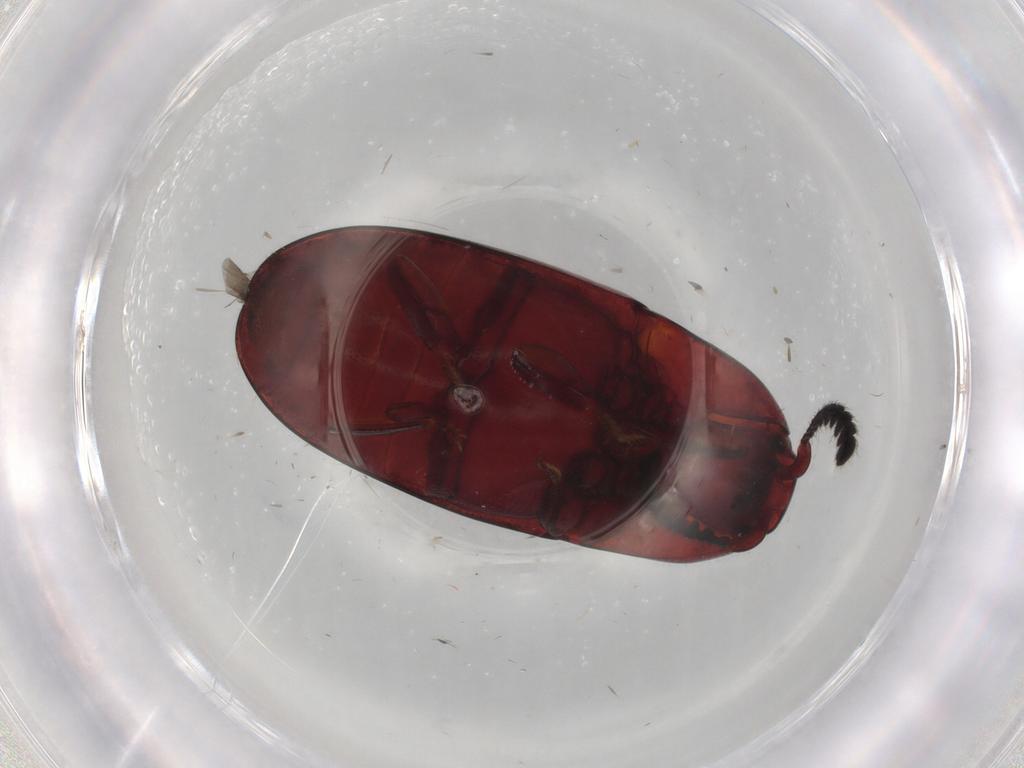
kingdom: Animalia
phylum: Arthropoda
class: Insecta
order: Coleoptera
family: Elateridae
